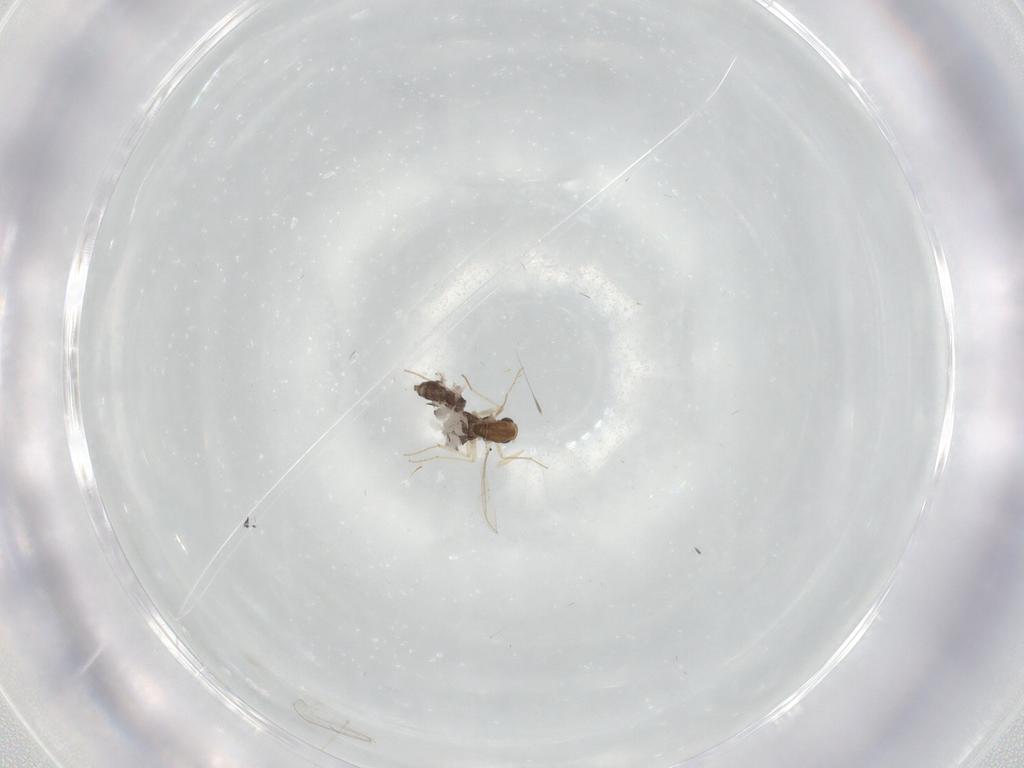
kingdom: Animalia
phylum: Arthropoda
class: Insecta
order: Diptera
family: Chironomidae
